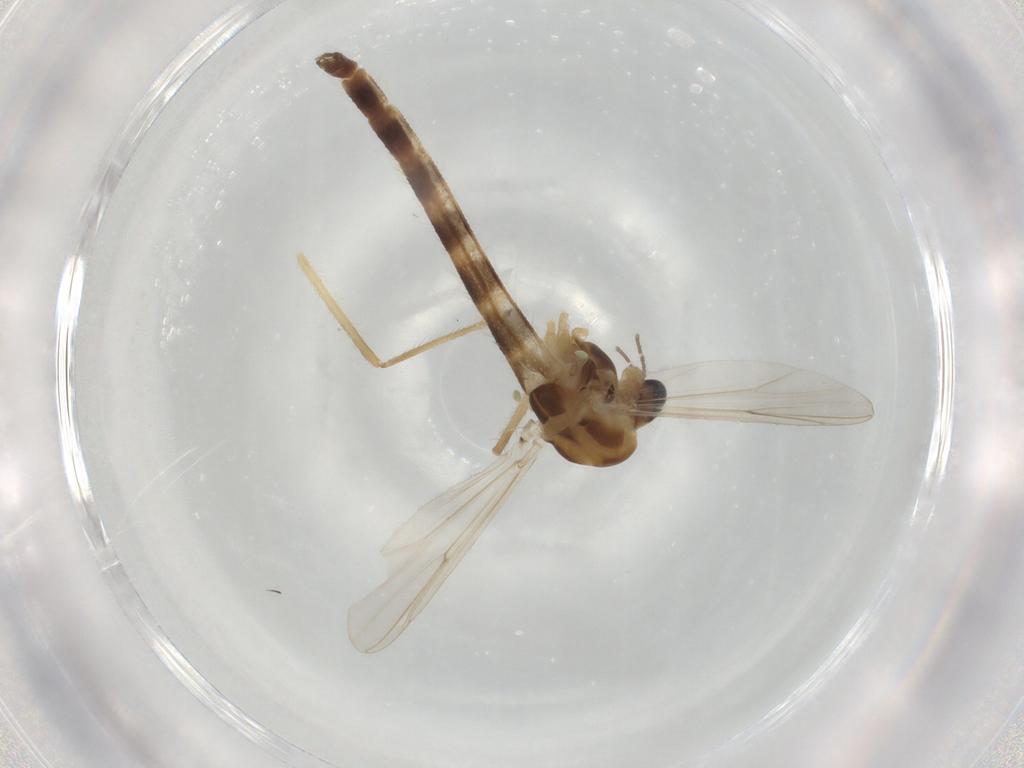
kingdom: Animalia
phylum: Arthropoda
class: Insecta
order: Diptera
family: Chironomidae
